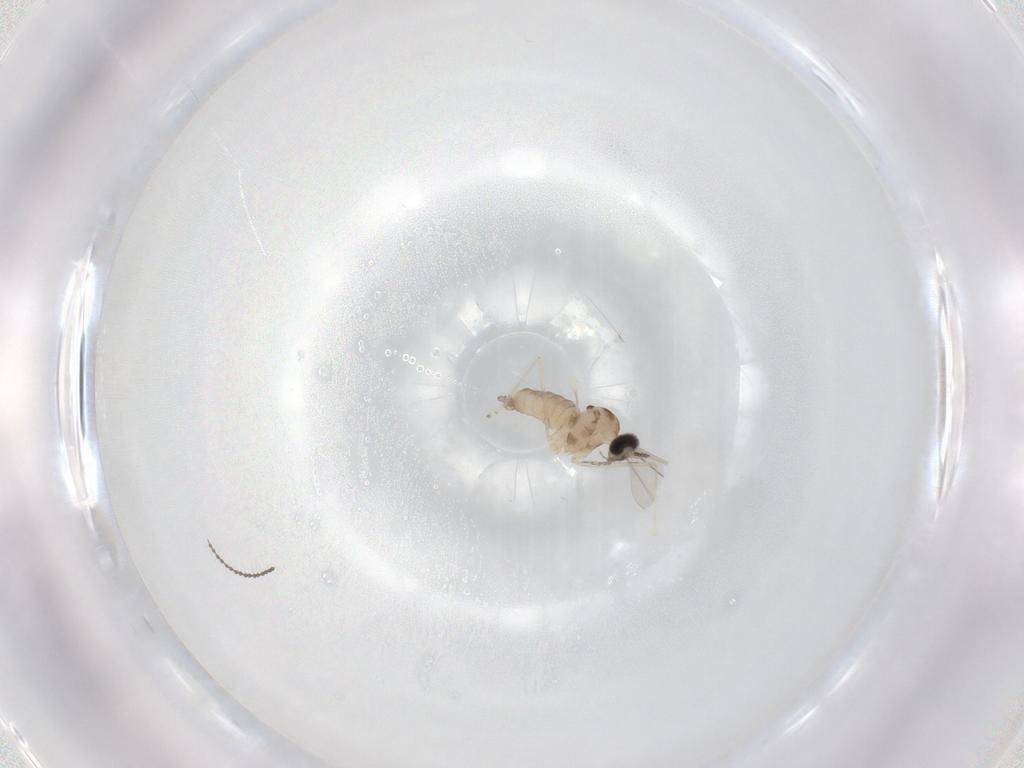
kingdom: Animalia
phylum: Arthropoda
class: Insecta
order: Diptera
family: Cecidomyiidae
